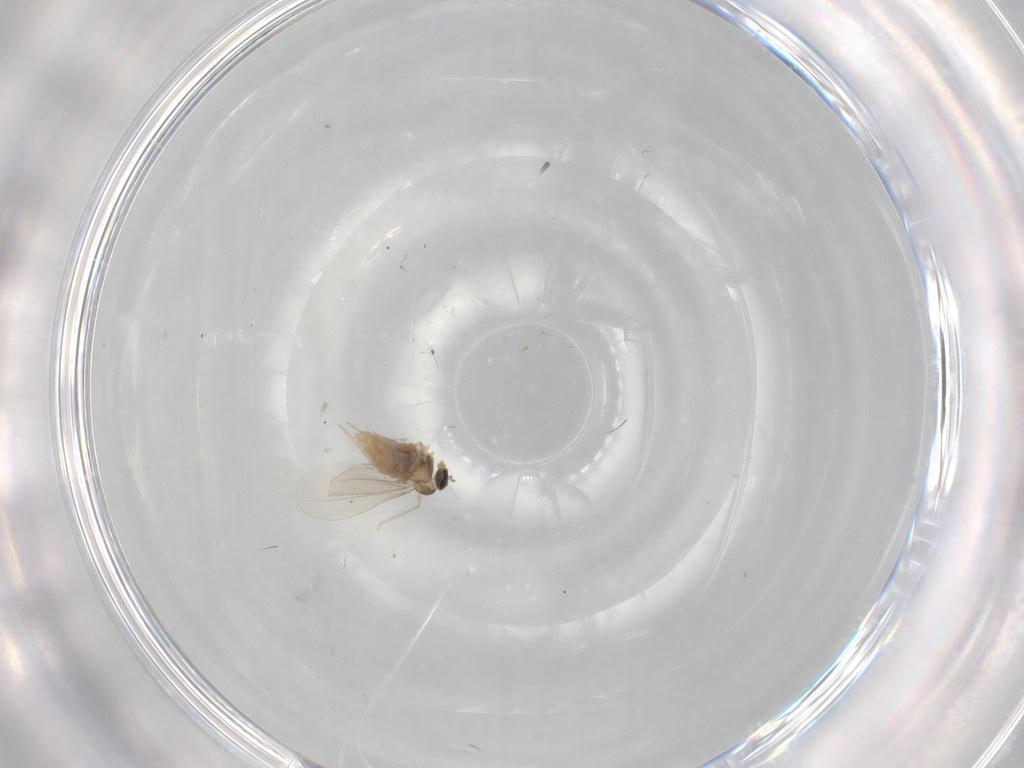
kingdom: Animalia
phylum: Arthropoda
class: Insecta
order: Diptera
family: Cecidomyiidae
